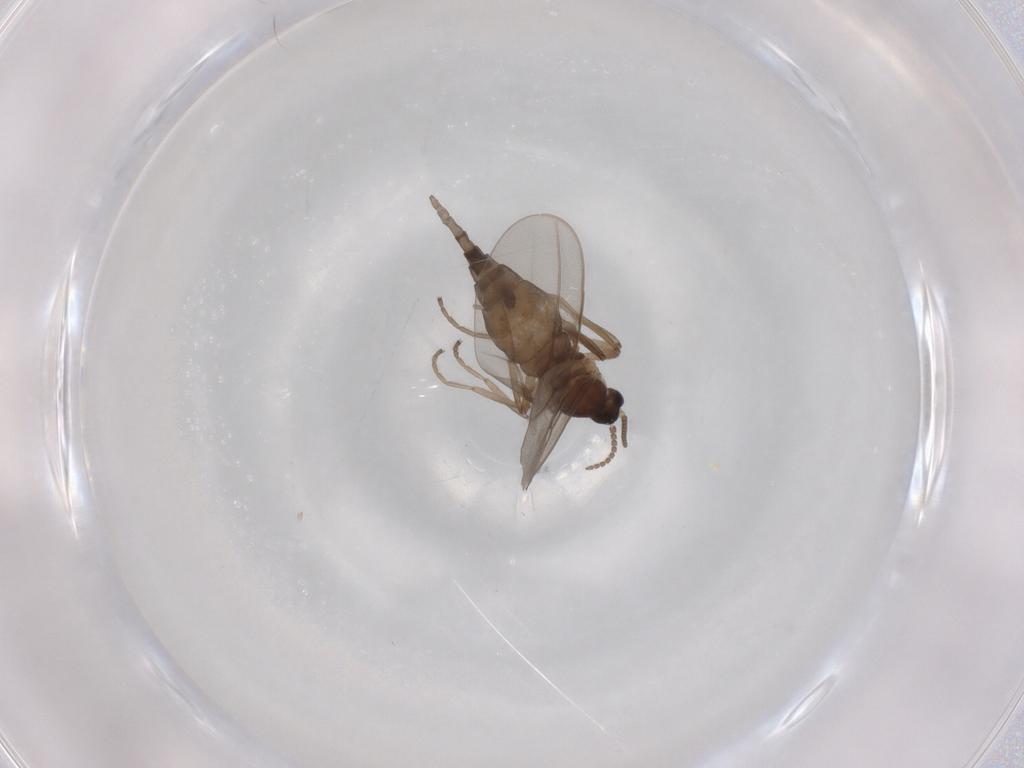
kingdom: Animalia
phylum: Arthropoda
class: Insecta
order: Diptera
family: Cecidomyiidae
